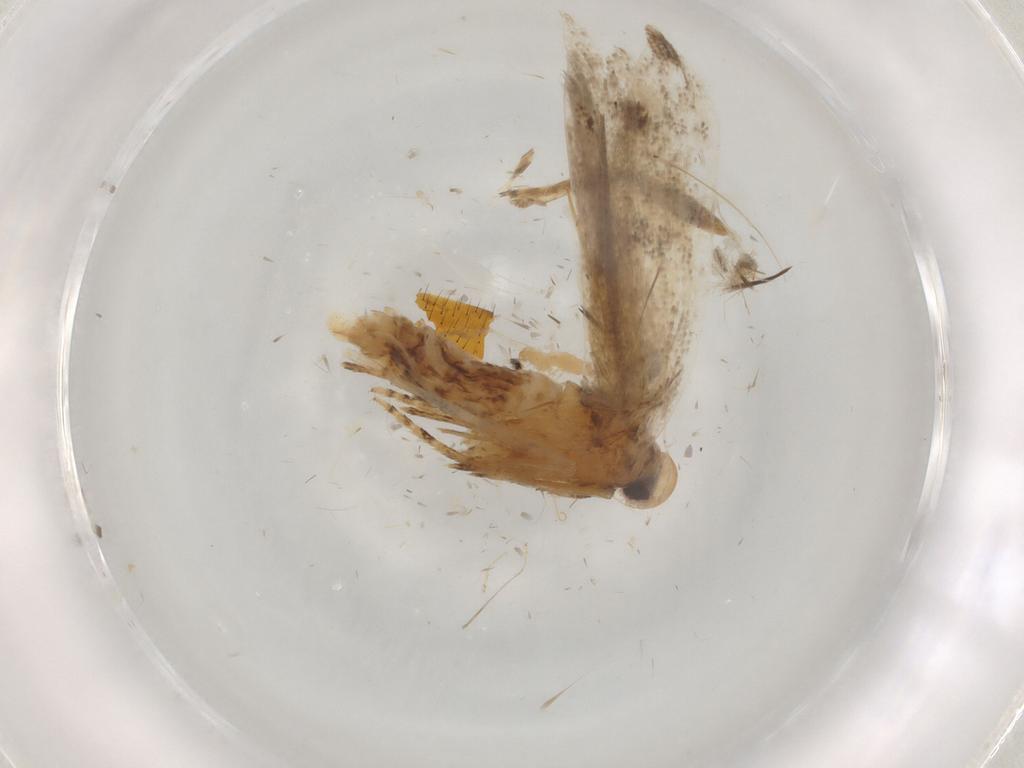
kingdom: Animalia
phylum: Arthropoda
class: Insecta
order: Lepidoptera
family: Gelechiidae
